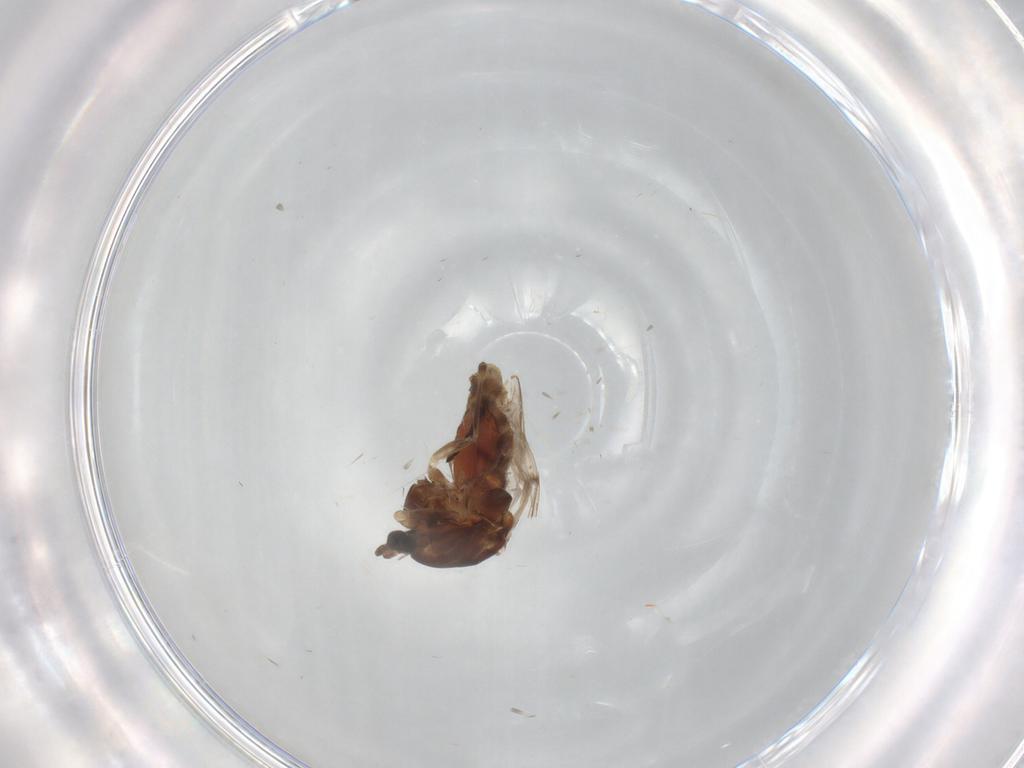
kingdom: Animalia
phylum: Arthropoda
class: Insecta
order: Diptera
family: Chironomidae
